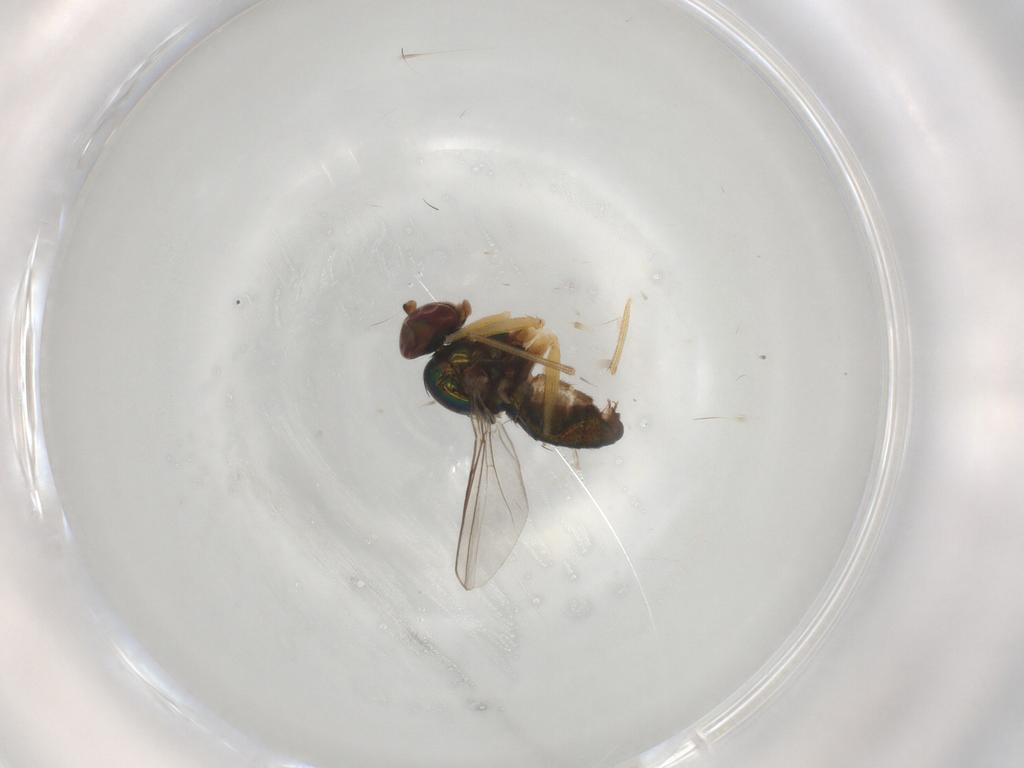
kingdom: Animalia
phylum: Arthropoda
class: Insecta
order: Diptera
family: Dolichopodidae
